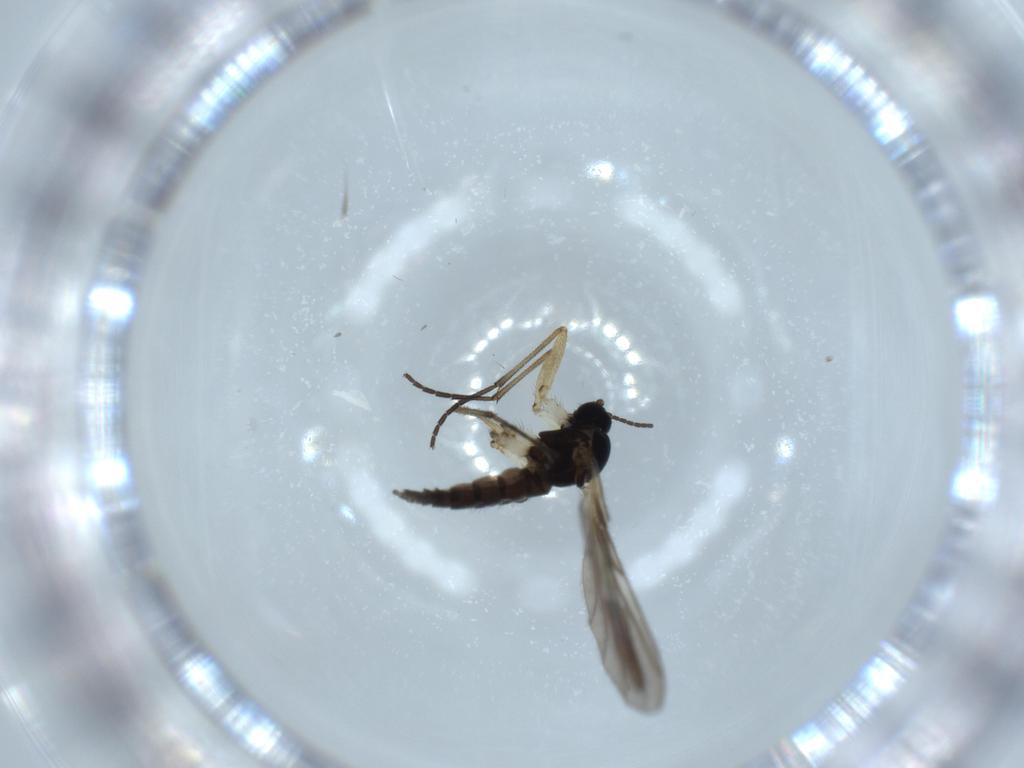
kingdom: Animalia
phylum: Arthropoda
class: Insecta
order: Diptera
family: Sciaridae
